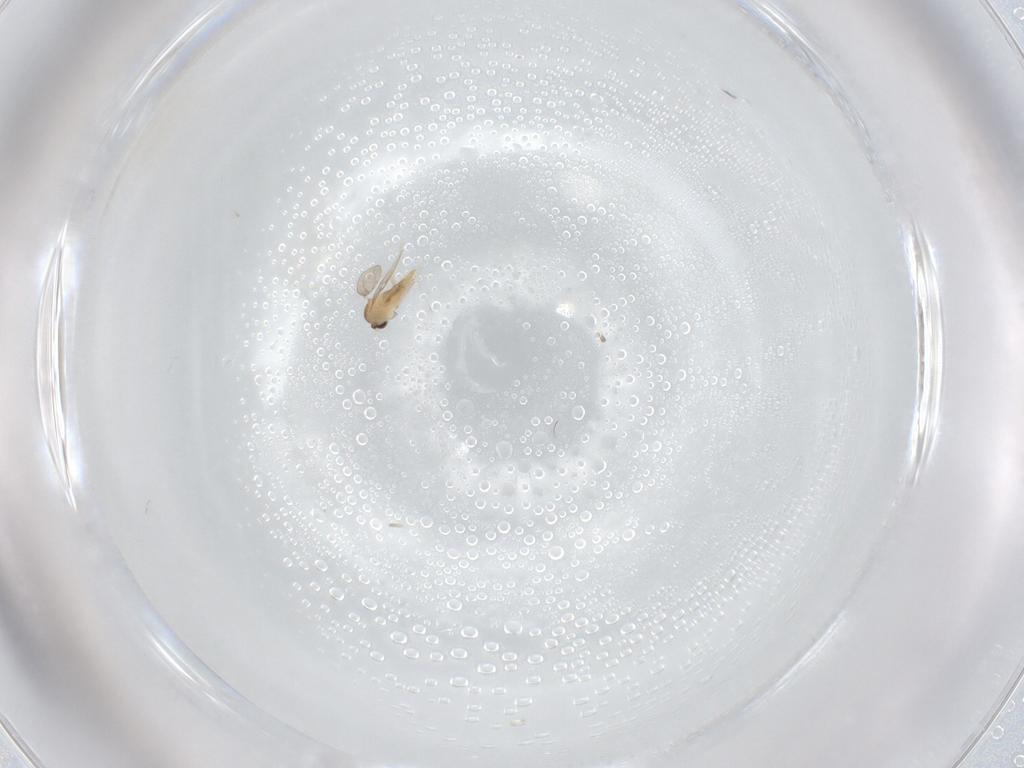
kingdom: Animalia
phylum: Arthropoda
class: Insecta
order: Diptera
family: Cecidomyiidae
